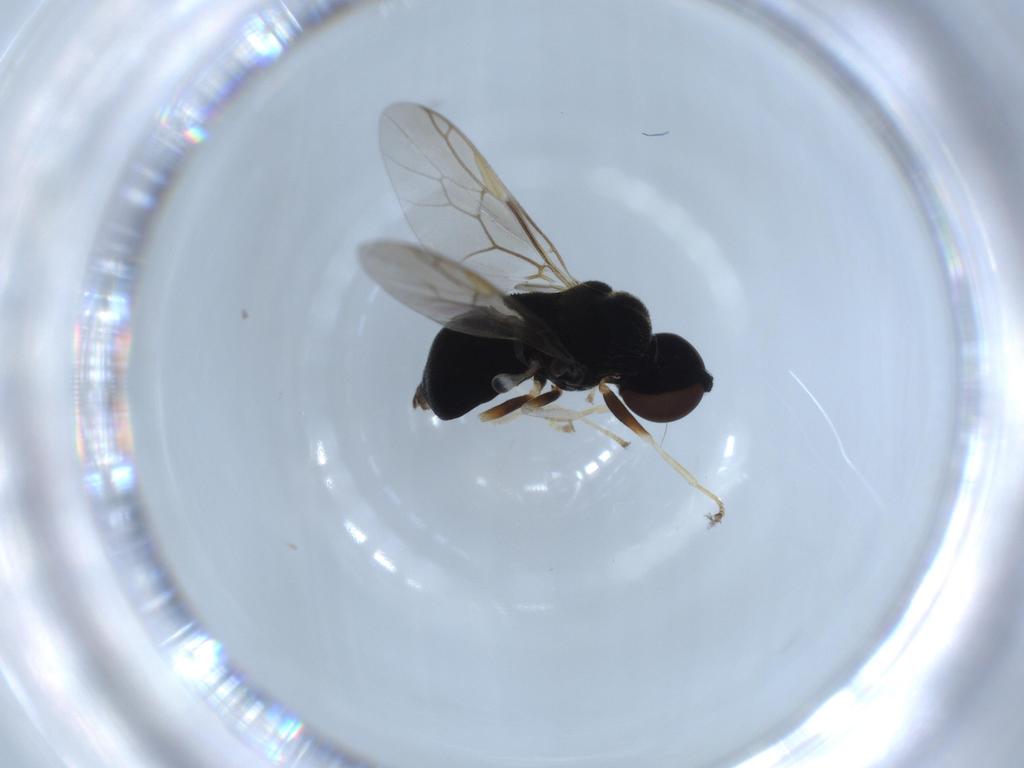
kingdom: Animalia
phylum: Arthropoda
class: Insecta
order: Diptera
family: Stratiomyidae
